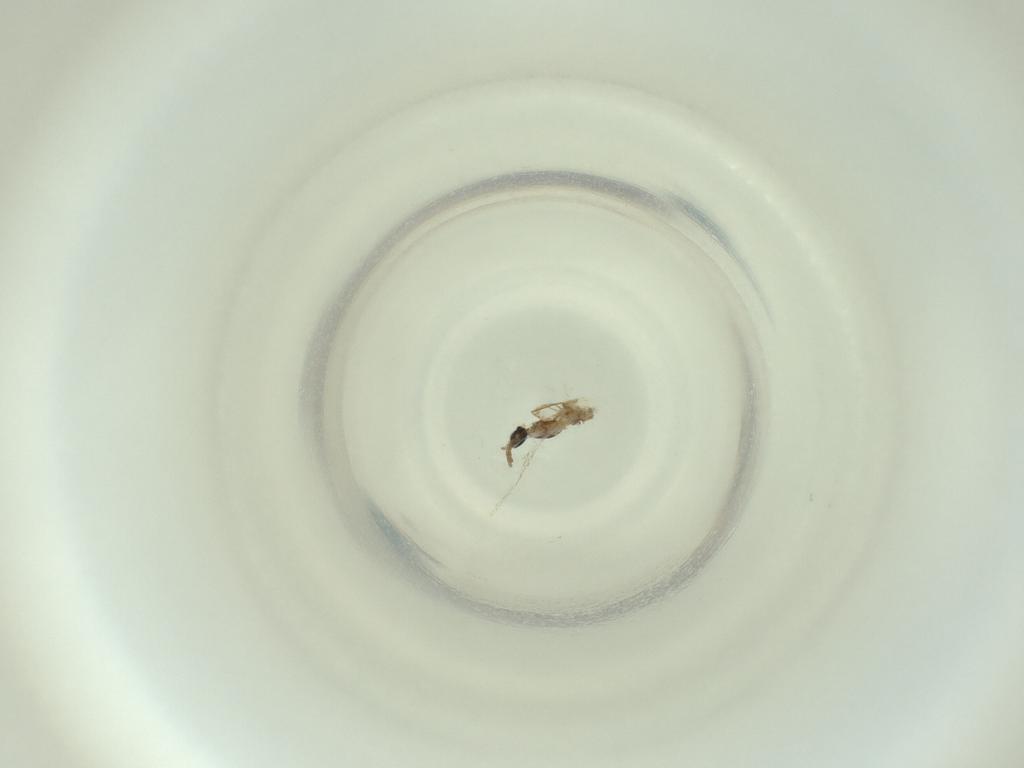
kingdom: Animalia
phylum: Arthropoda
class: Insecta
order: Diptera
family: Cecidomyiidae
